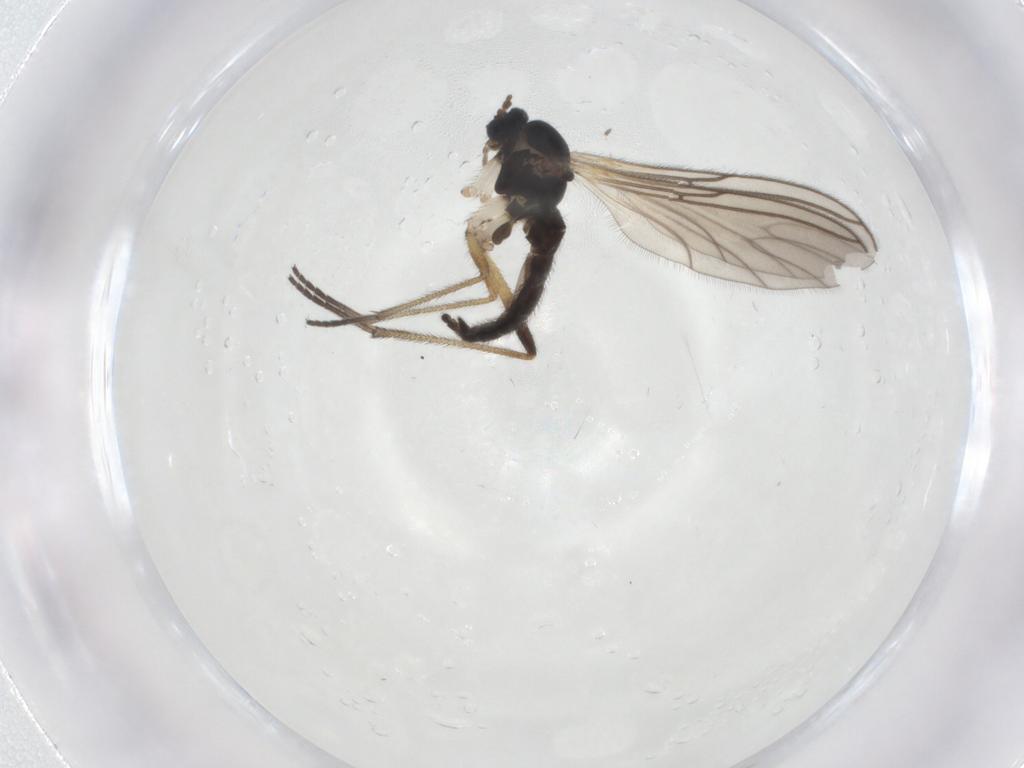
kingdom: Animalia
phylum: Arthropoda
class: Insecta
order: Diptera
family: Sciaridae
